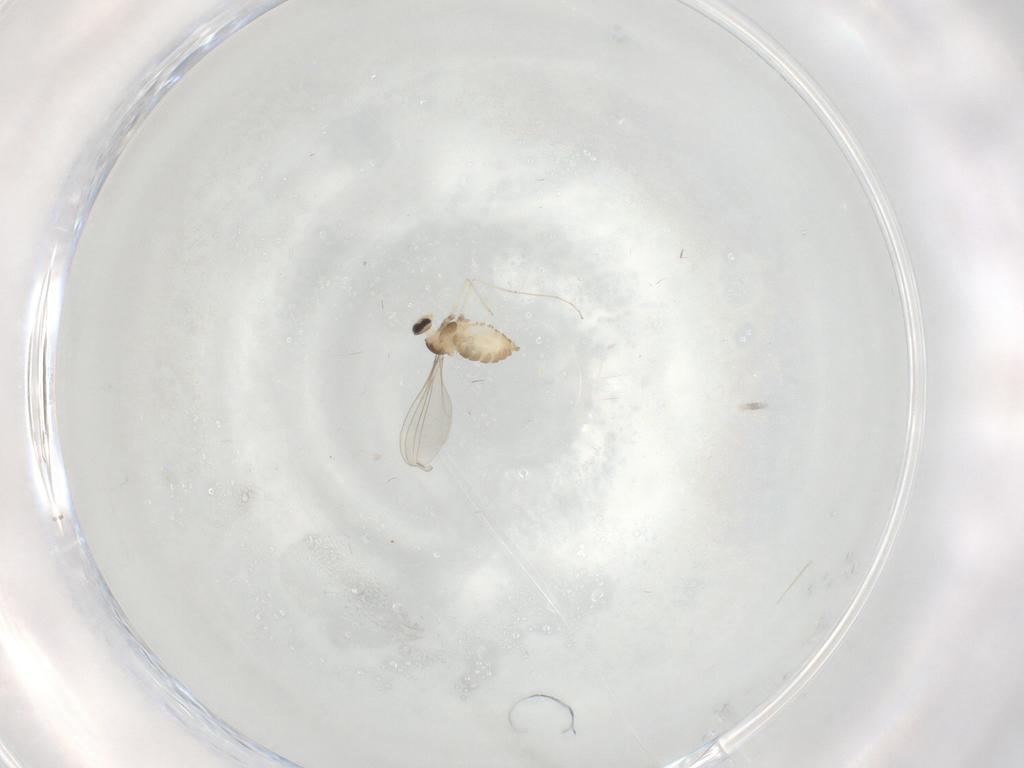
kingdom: Animalia
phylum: Arthropoda
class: Insecta
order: Diptera
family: Cecidomyiidae
